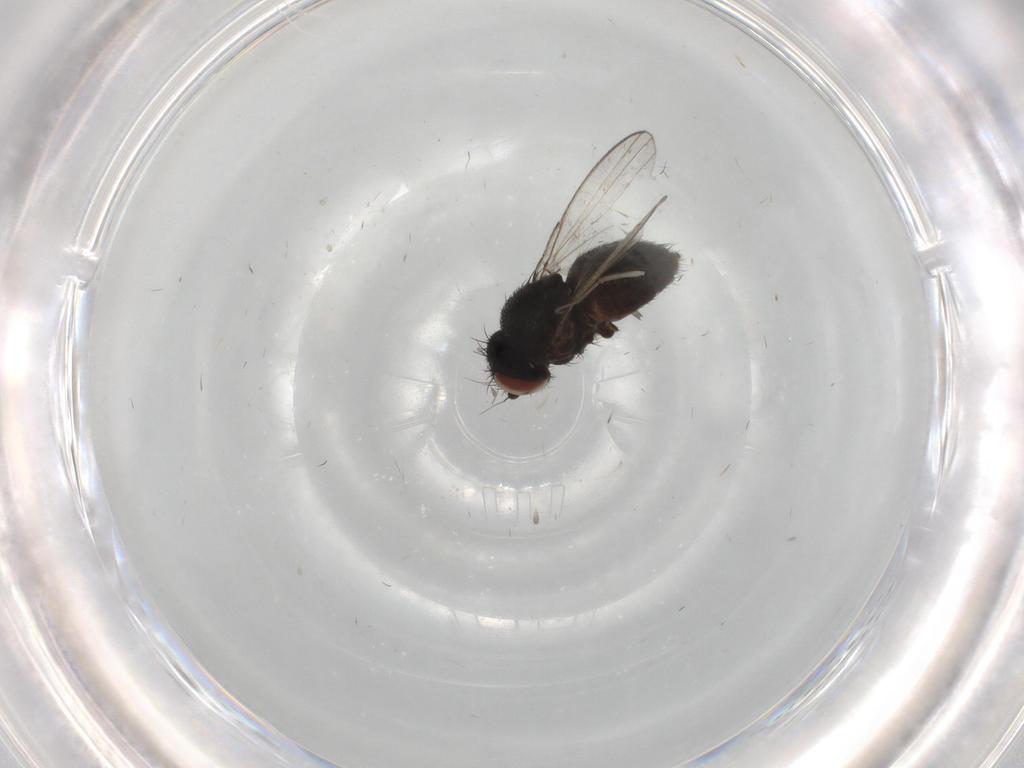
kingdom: Animalia
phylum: Arthropoda
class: Insecta
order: Diptera
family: Milichiidae
